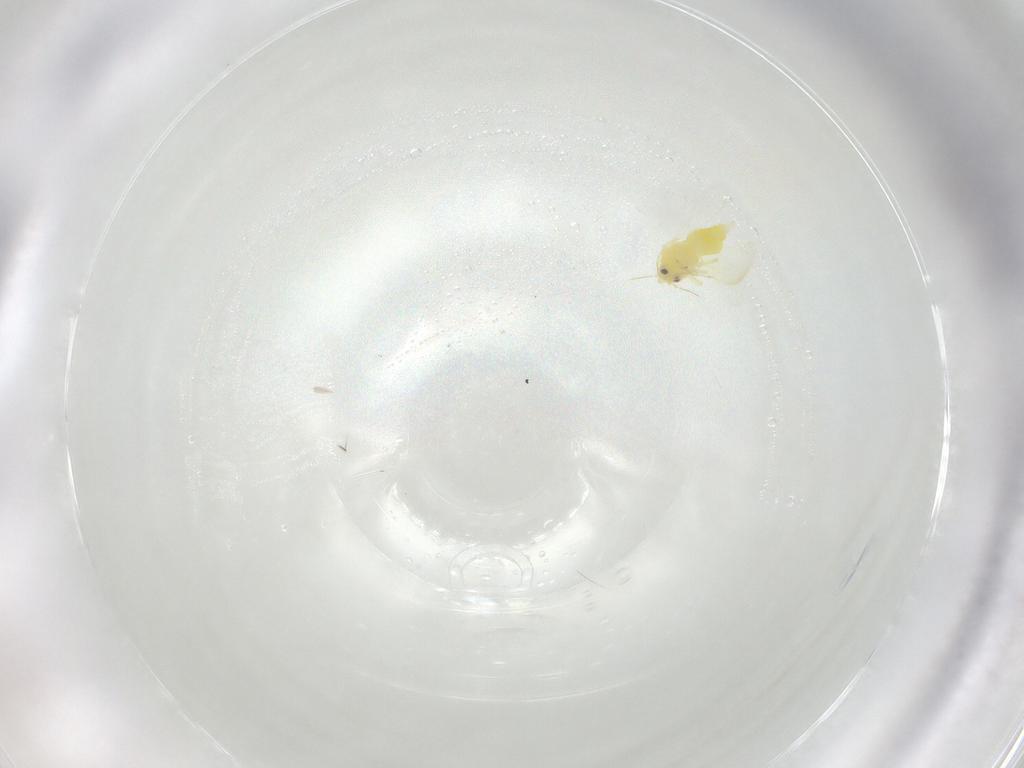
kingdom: Animalia
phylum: Arthropoda
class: Insecta
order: Hemiptera
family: Aleyrodidae
